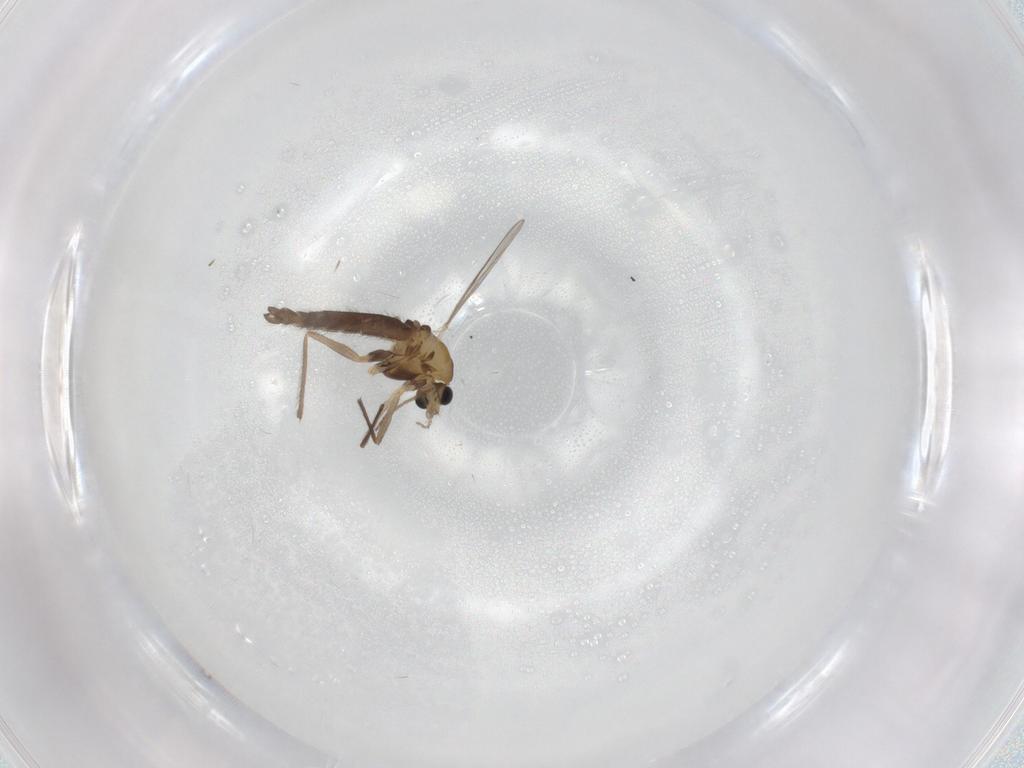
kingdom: Animalia
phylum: Arthropoda
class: Insecta
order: Diptera
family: Chironomidae
